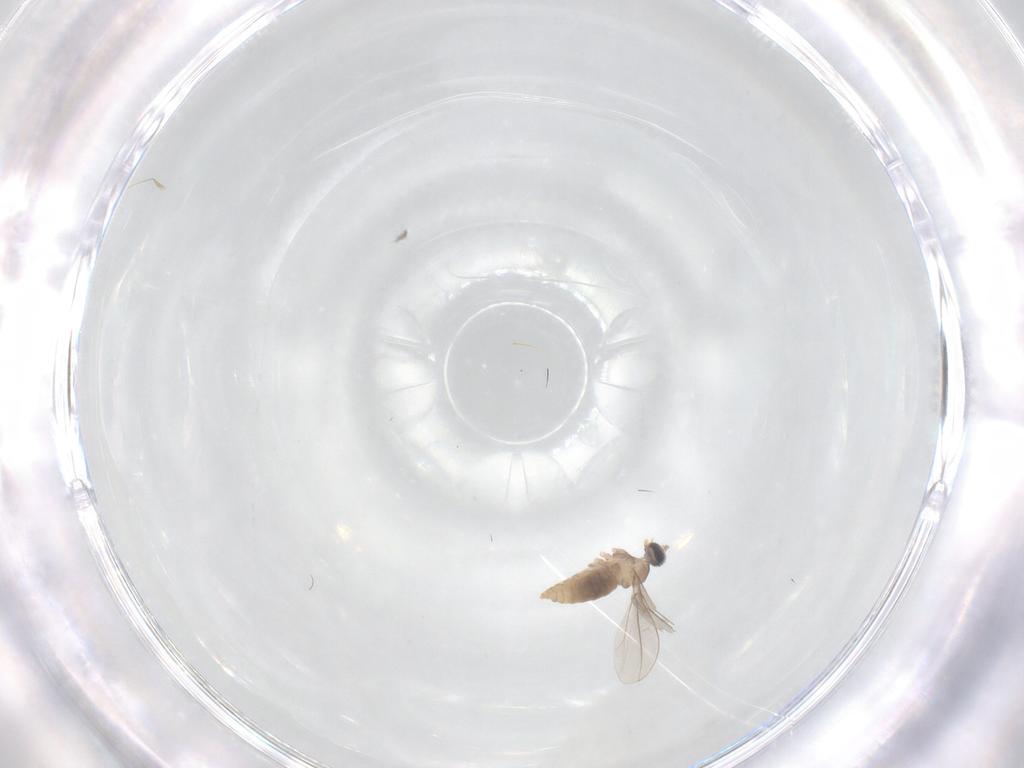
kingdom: Animalia
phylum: Arthropoda
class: Insecta
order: Diptera
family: Cecidomyiidae
